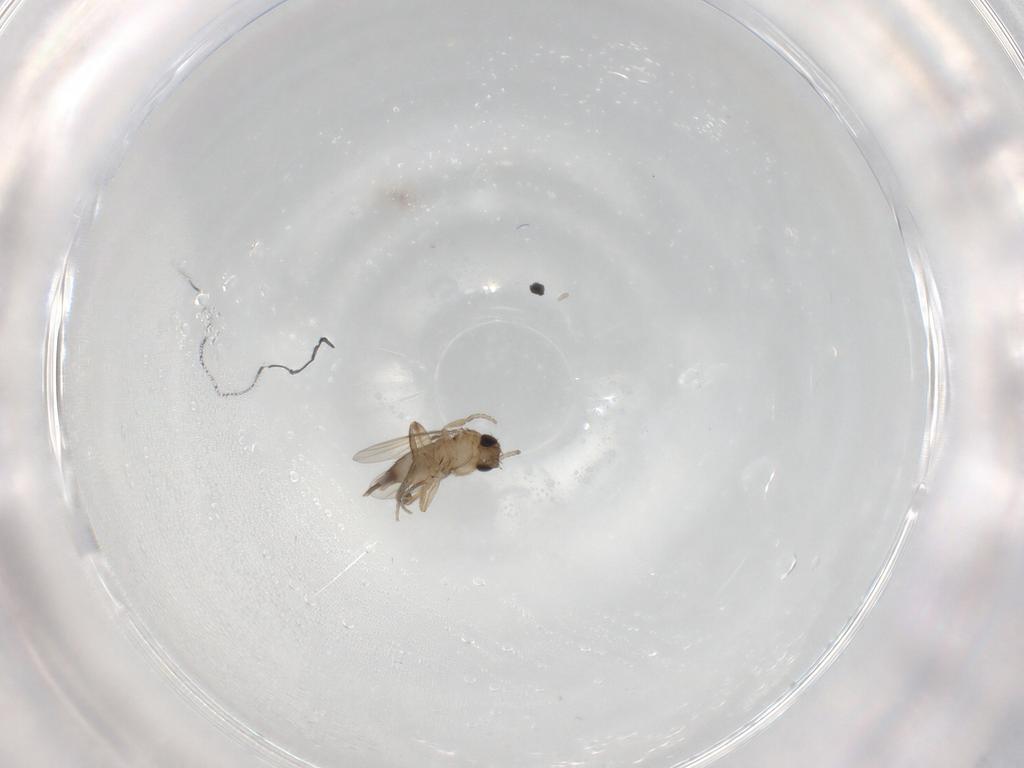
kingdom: Animalia
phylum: Arthropoda
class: Insecta
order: Diptera
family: Phoridae
